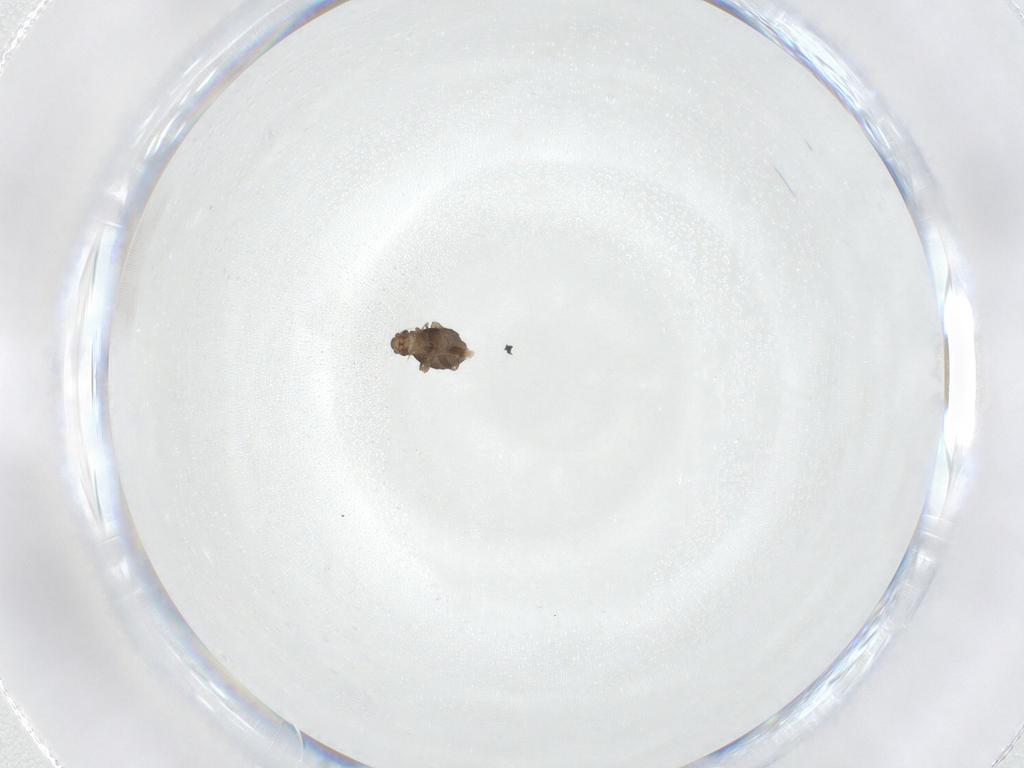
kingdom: Animalia
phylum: Arthropoda
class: Insecta
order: Diptera
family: Phoridae
